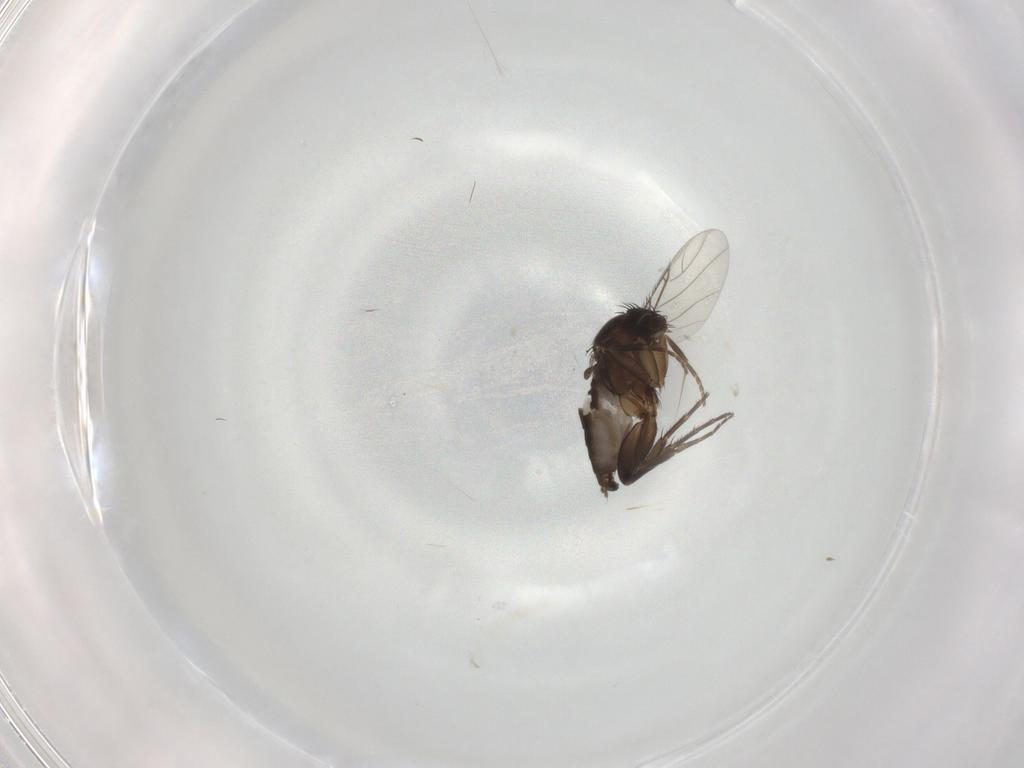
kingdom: Animalia
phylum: Arthropoda
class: Insecta
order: Diptera
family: Phoridae
